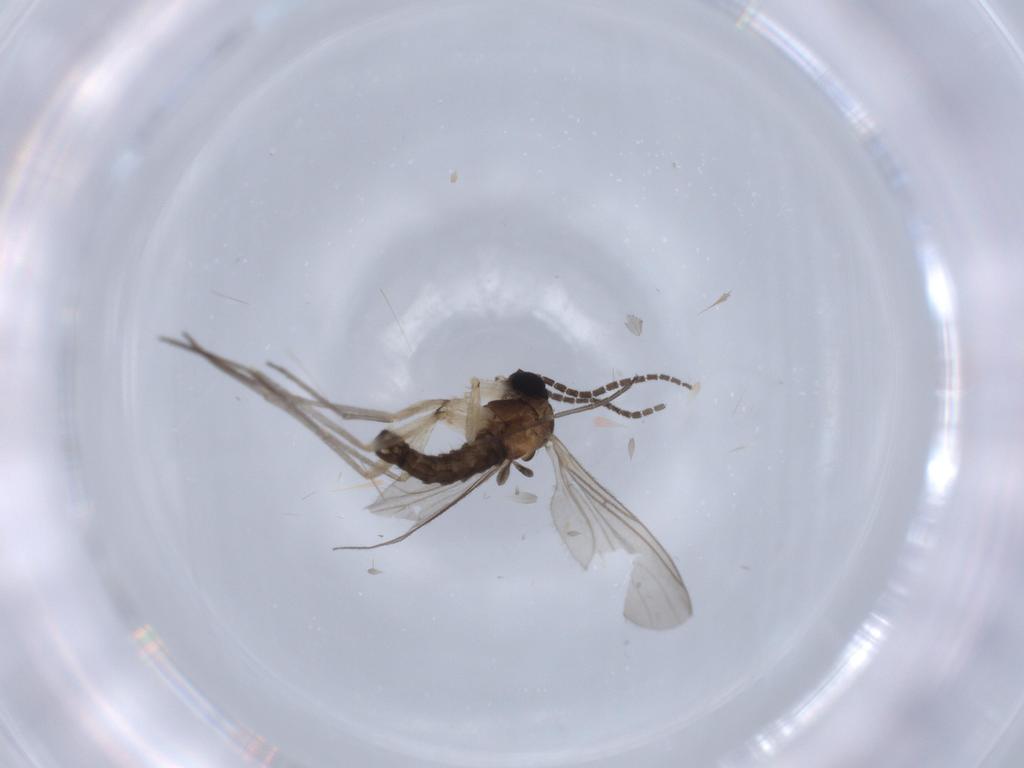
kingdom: Animalia
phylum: Arthropoda
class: Insecta
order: Diptera
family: Sciaridae
